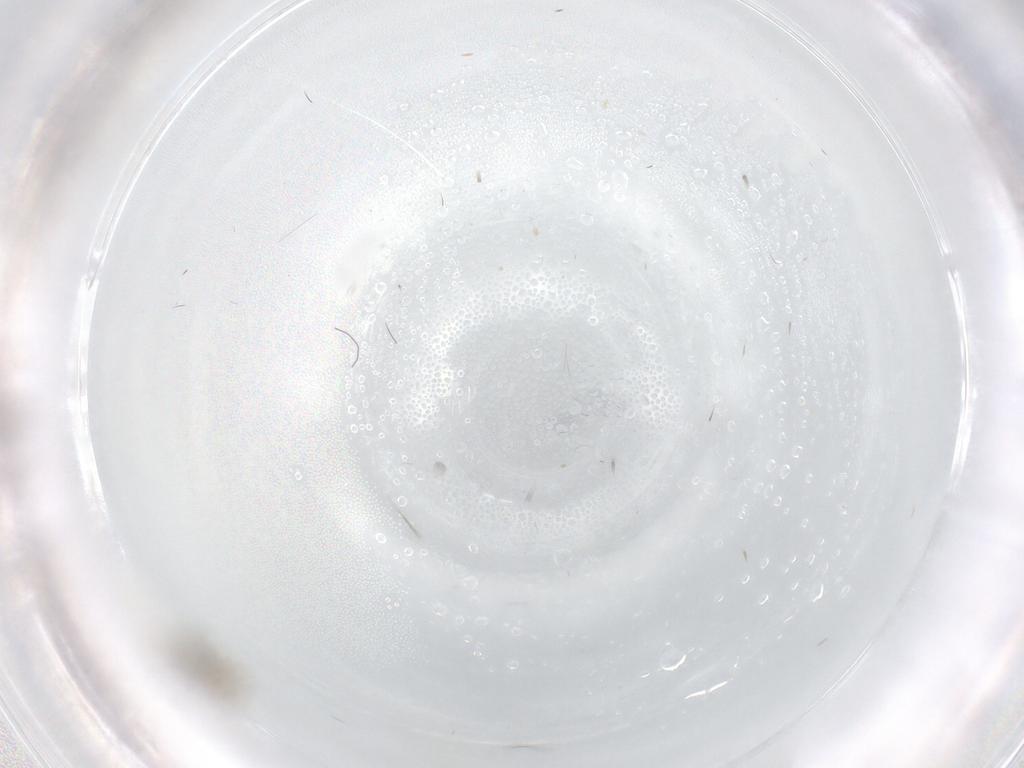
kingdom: Animalia
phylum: Arthropoda
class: Insecta
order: Diptera
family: Cecidomyiidae
